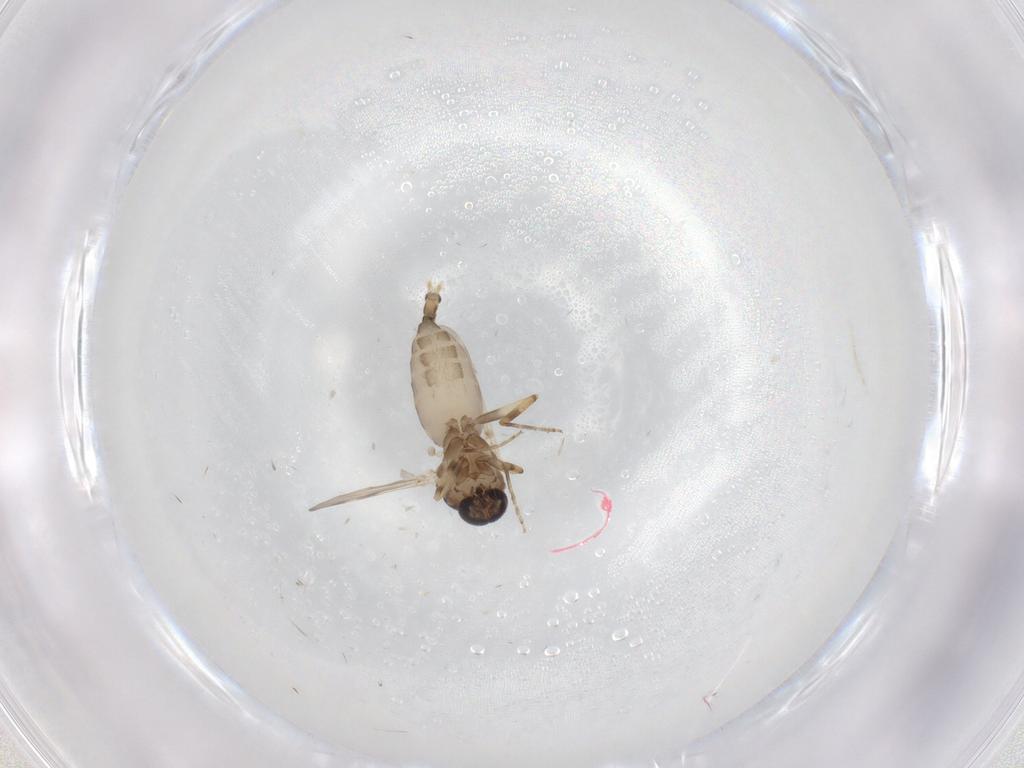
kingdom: Animalia
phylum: Arthropoda
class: Insecta
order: Diptera
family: Ceratopogonidae
